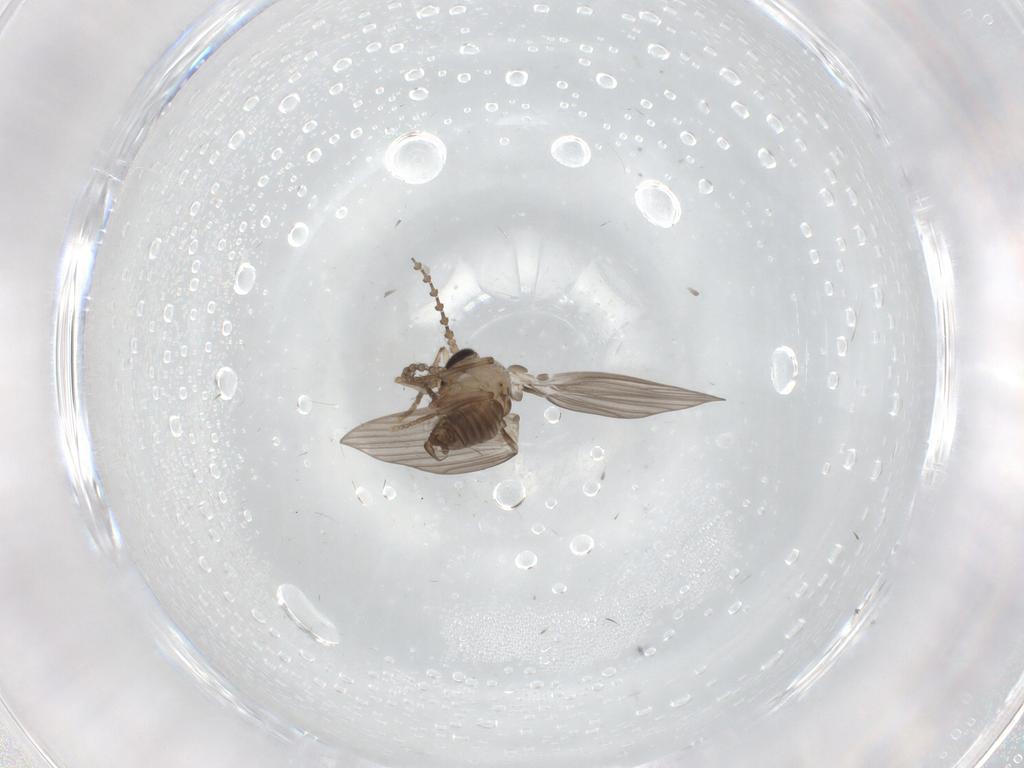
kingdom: Animalia
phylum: Arthropoda
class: Insecta
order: Diptera
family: Psychodidae
